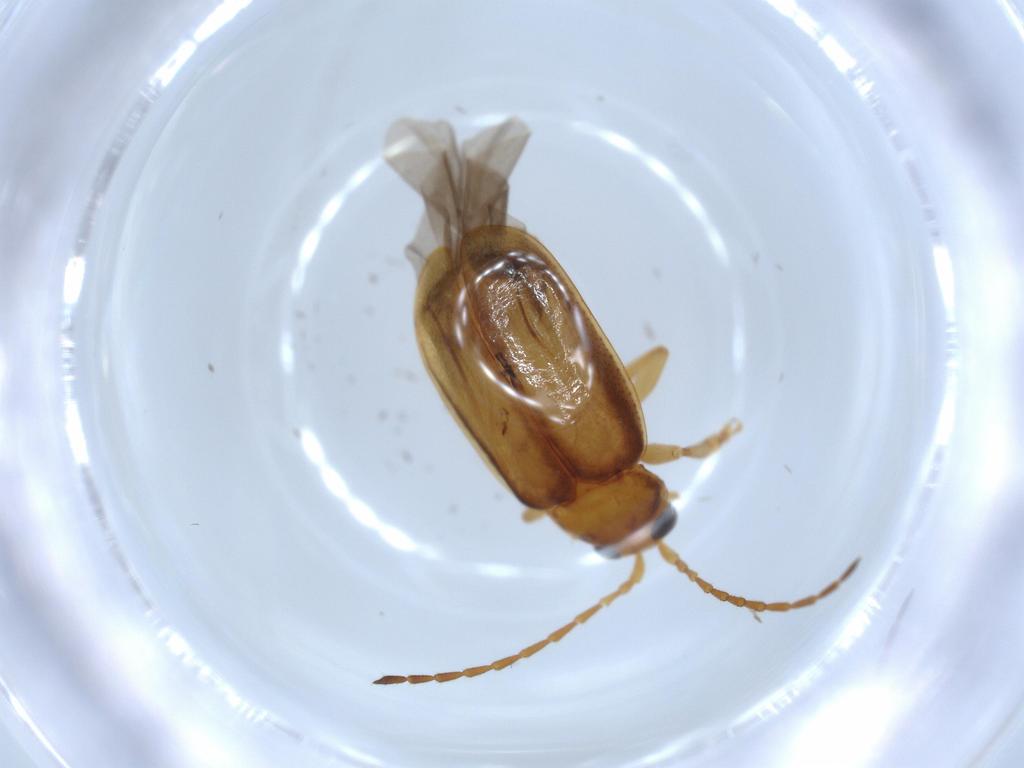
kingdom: Animalia
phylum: Arthropoda
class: Insecta
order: Coleoptera
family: Chrysomelidae
